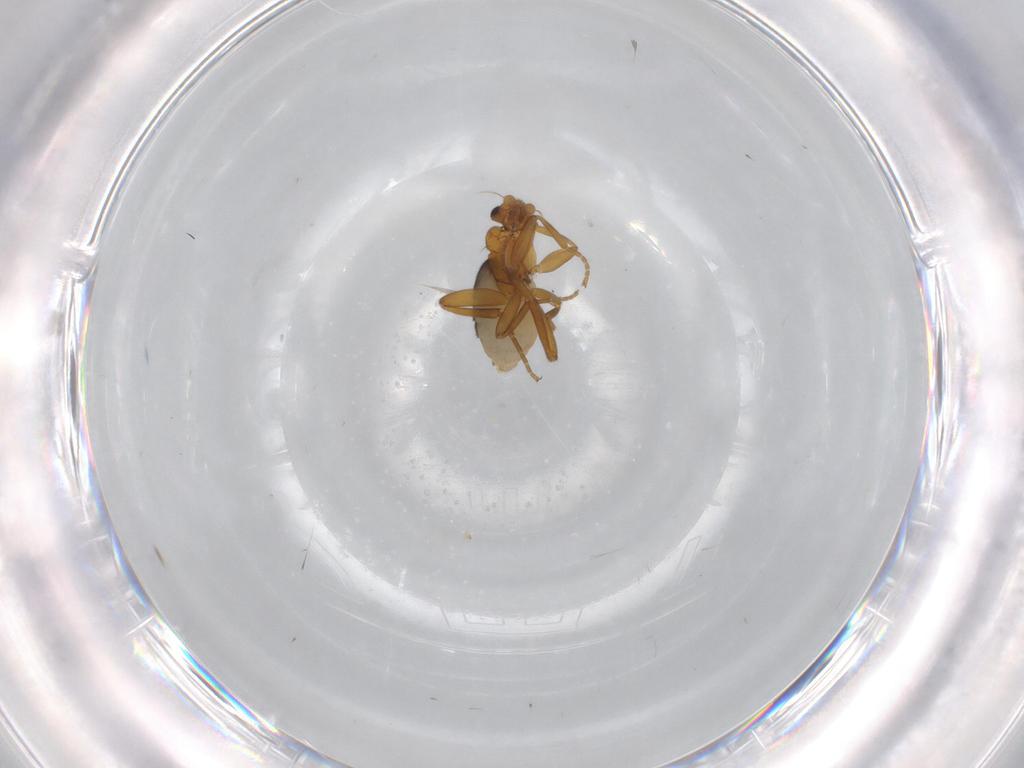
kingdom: Animalia
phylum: Arthropoda
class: Insecta
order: Diptera
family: Phoridae
